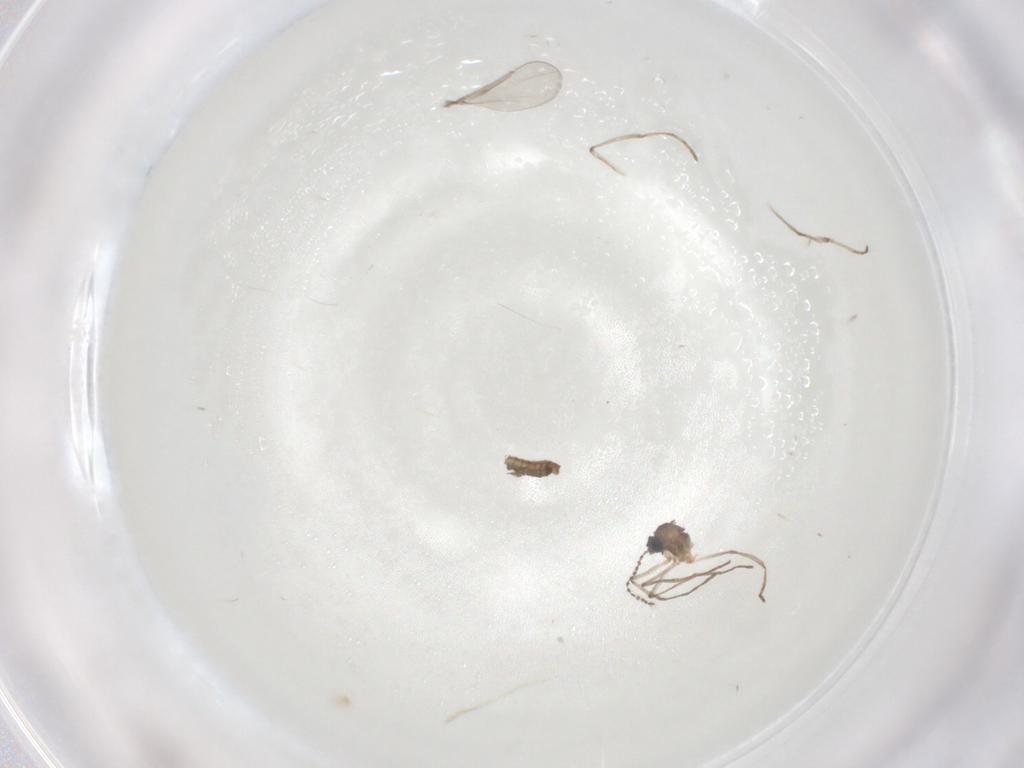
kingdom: Animalia
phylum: Arthropoda
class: Insecta
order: Diptera
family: Cecidomyiidae
